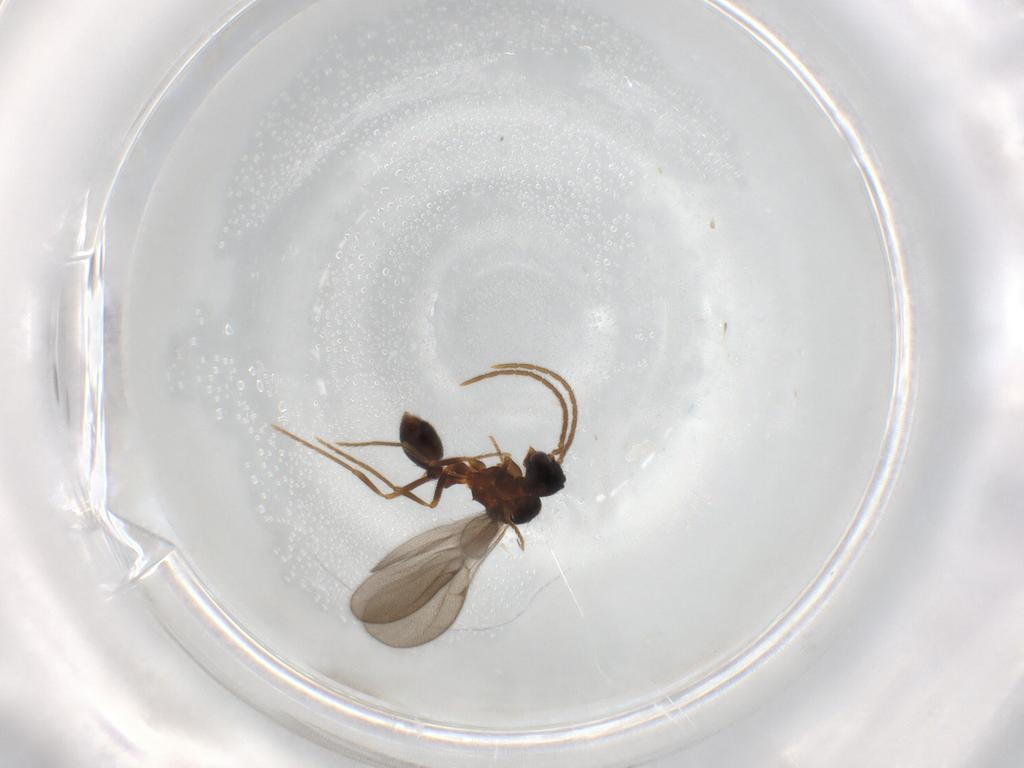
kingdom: Animalia
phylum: Arthropoda
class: Insecta
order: Hymenoptera
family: Formicidae
